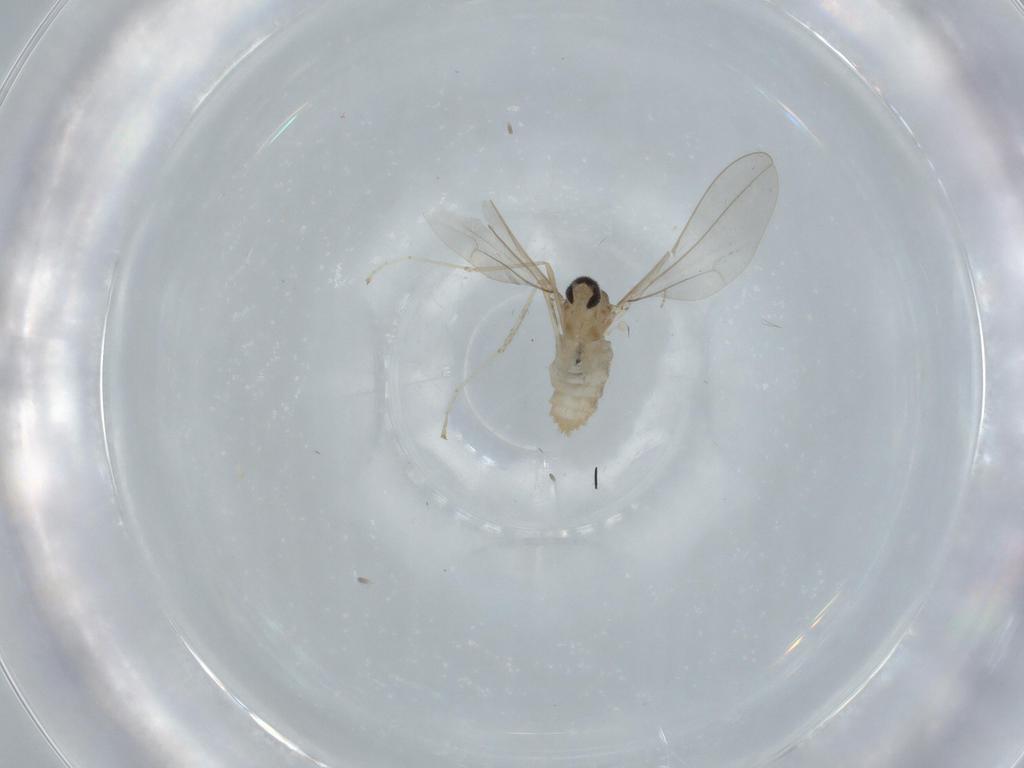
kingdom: Animalia
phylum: Arthropoda
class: Insecta
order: Diptera
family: Cecidomyiidae
